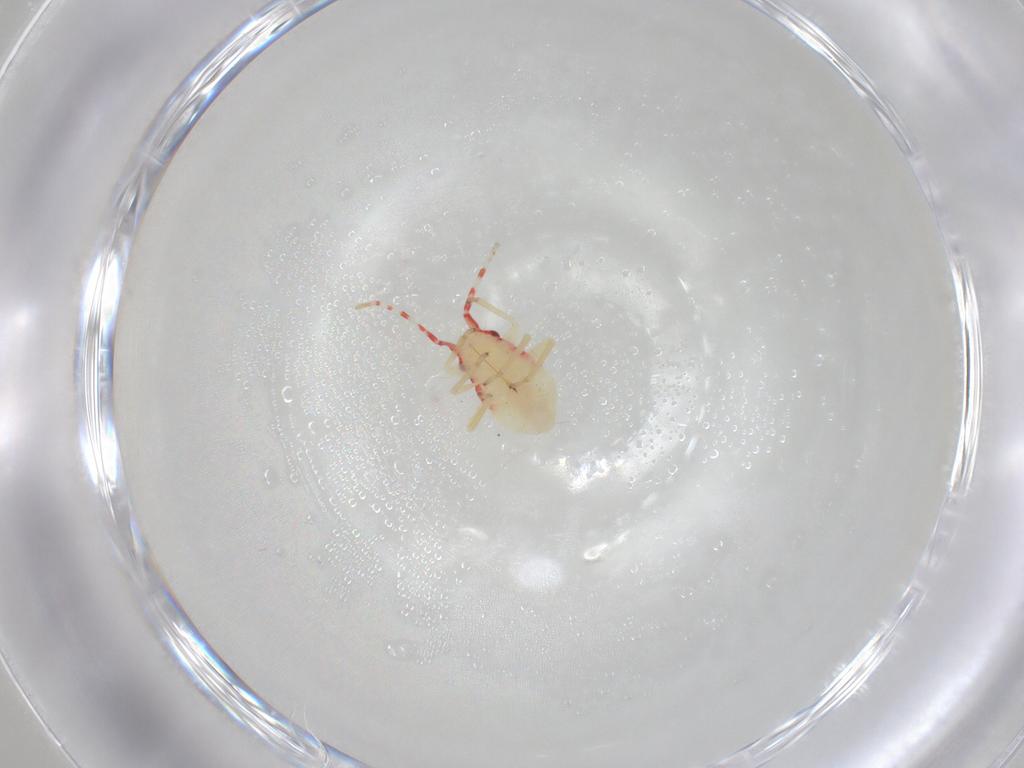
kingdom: Animalia
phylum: Arthropoda
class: Insecta
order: Hemiptera
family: Miridae
